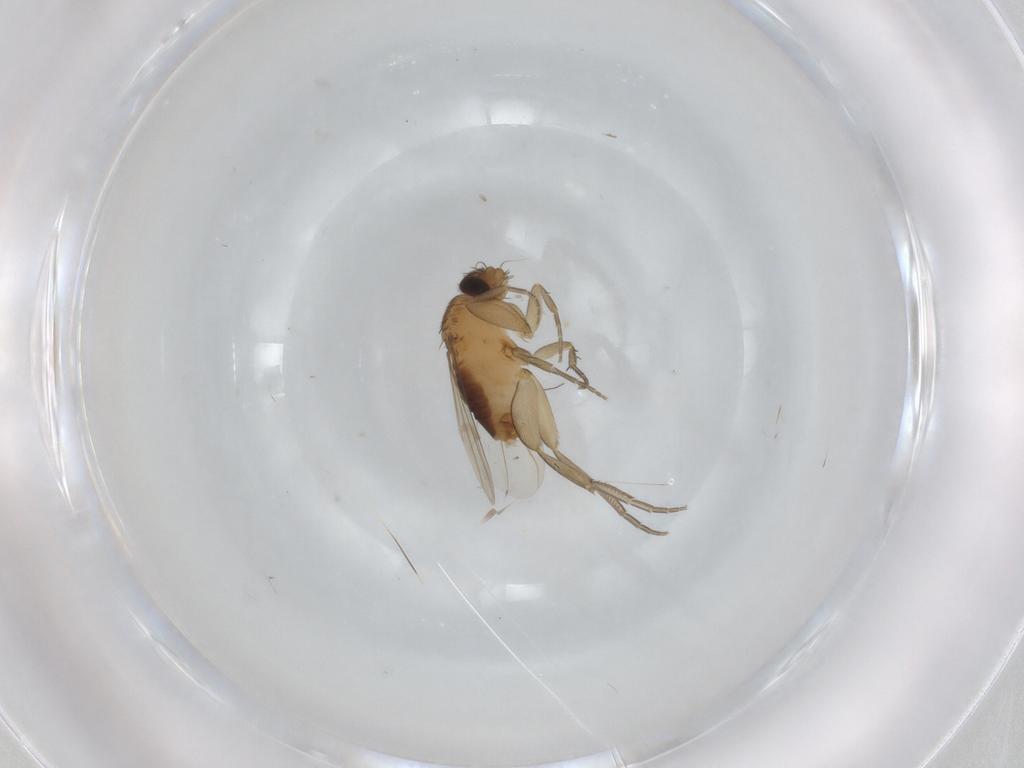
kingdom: Animalia
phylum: Arthropoda
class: Insecta
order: Diptera
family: Phoridae
